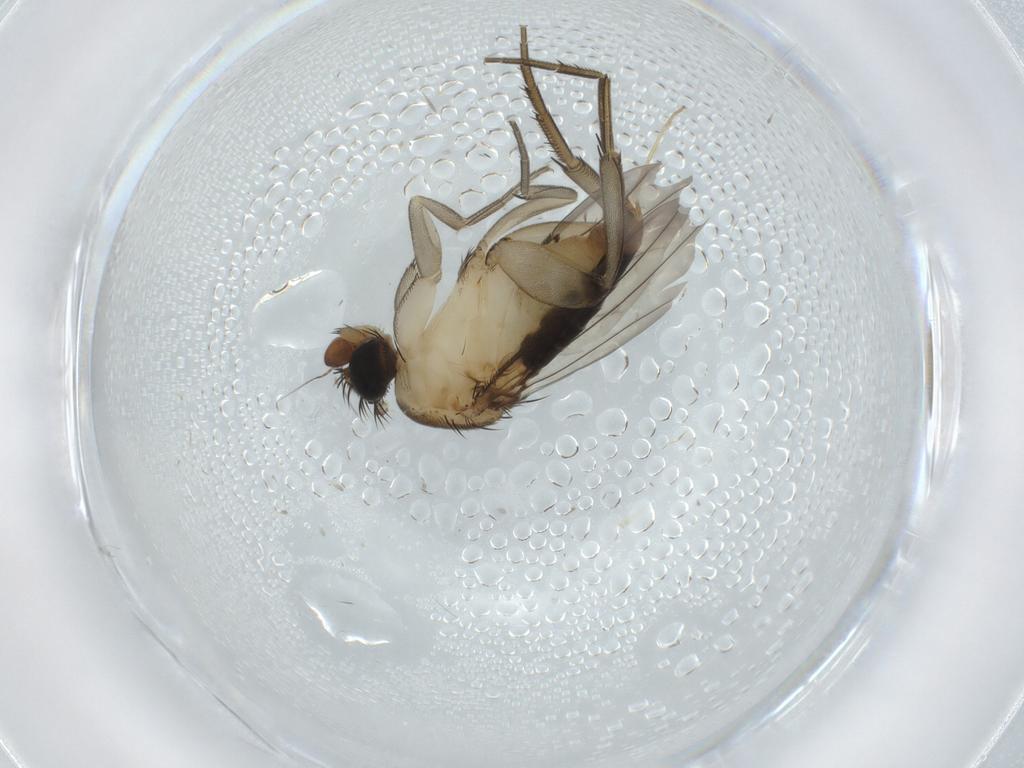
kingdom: Animalia
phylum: Arthropoda
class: Insecta
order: Diptera
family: Phoridae
